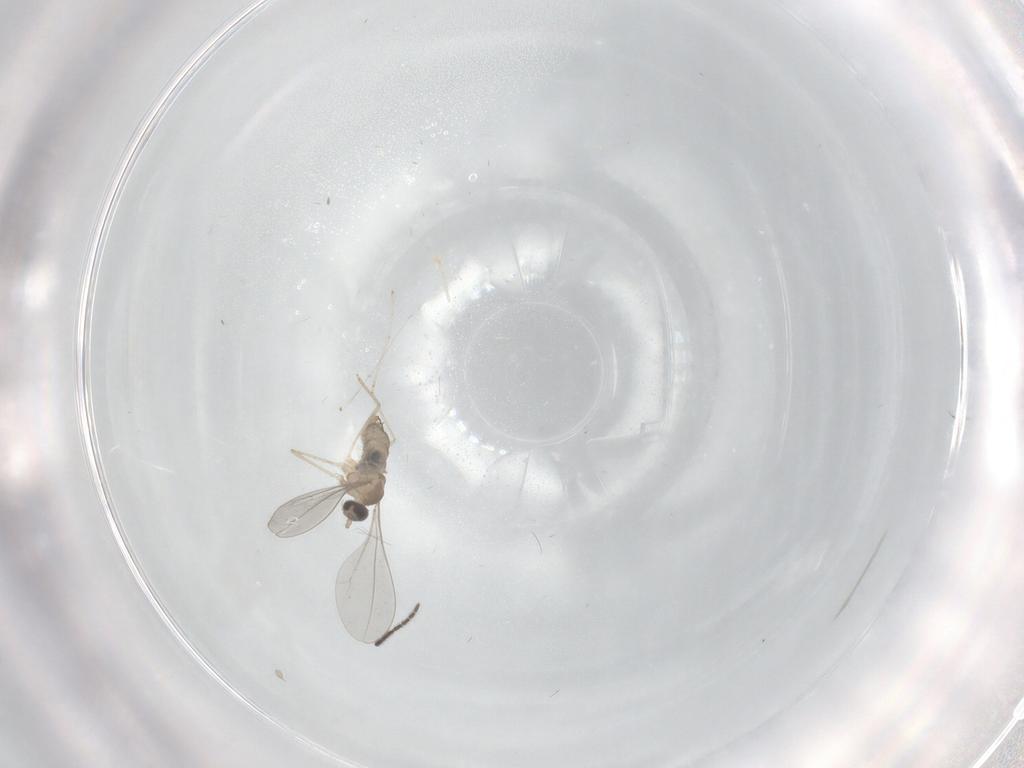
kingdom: Animalia
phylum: Arthropoda
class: Insecta
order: Diptera
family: Cecidomyiidae
